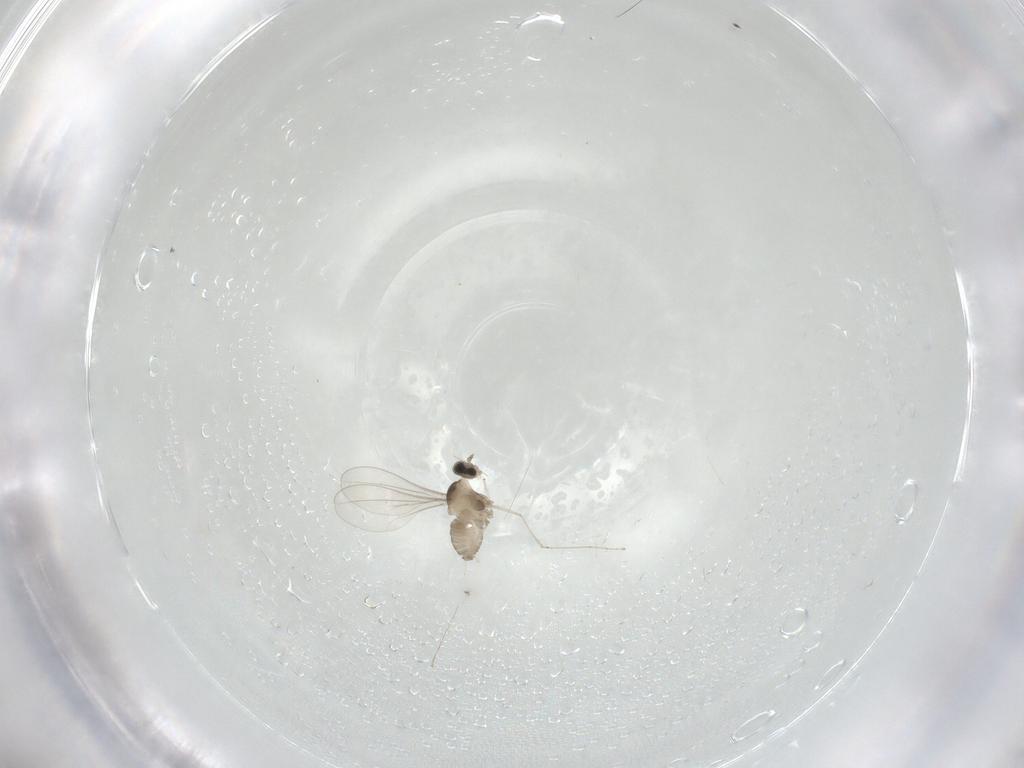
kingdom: Animalia
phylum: Arthropoda
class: Insecta
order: Diptera
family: Sciaridae
